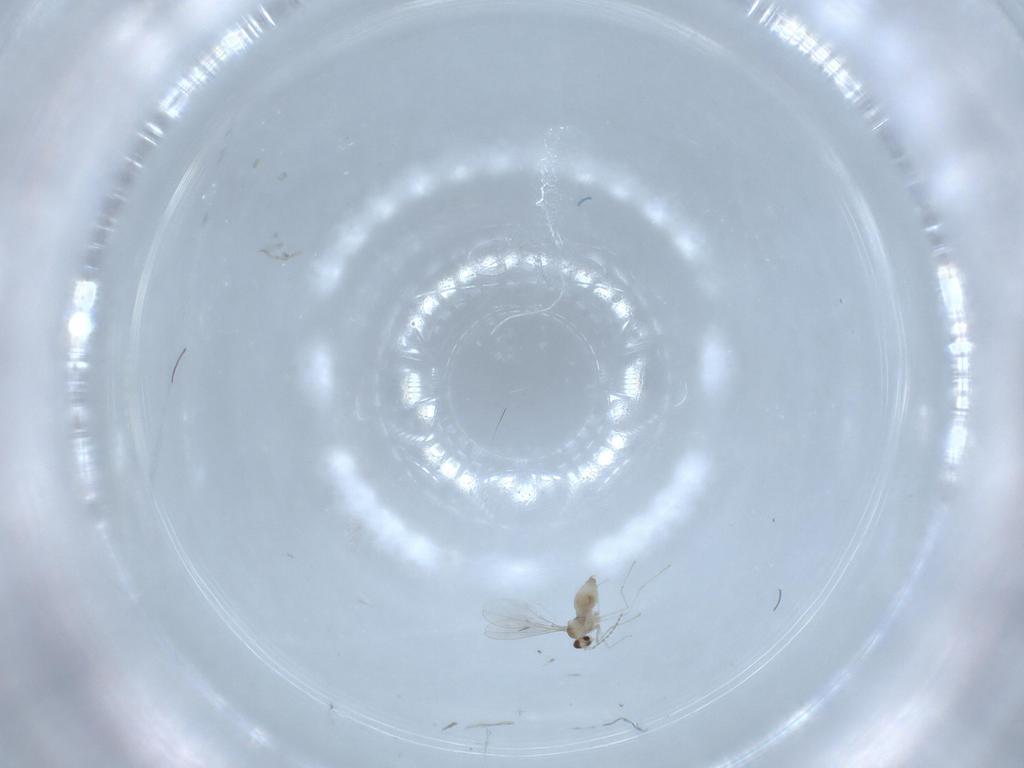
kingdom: Animalia
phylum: Arthropoda
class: Insecta
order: Diptera
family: Cecidomyiidae
